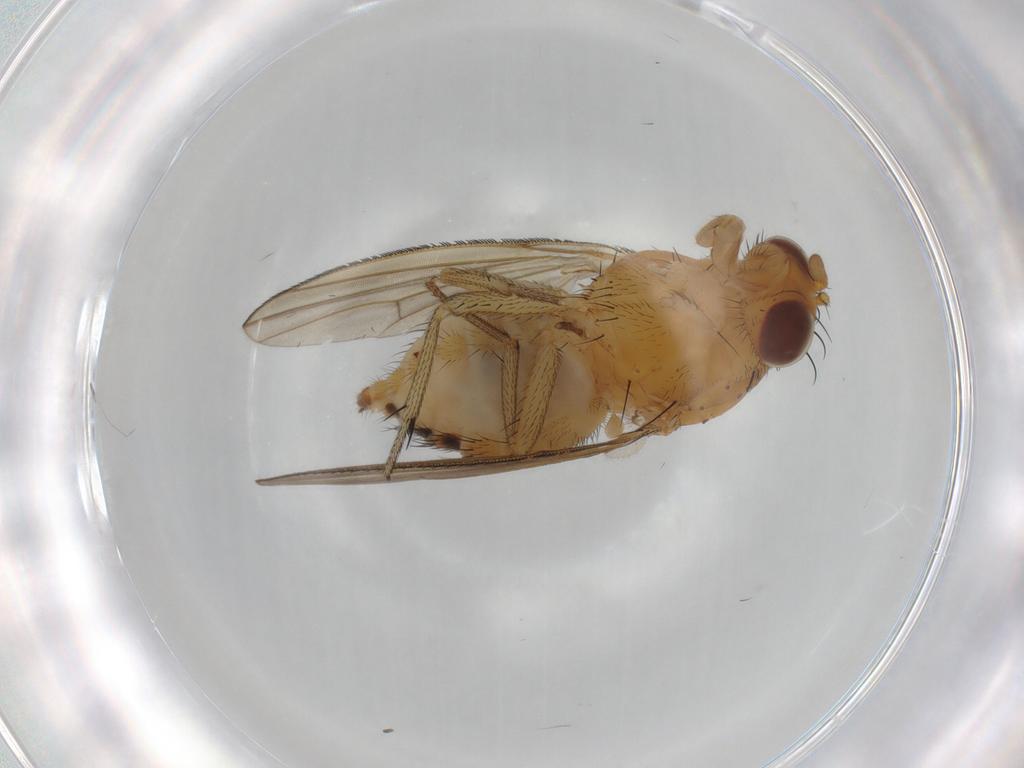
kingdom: Animalia
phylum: Arthropoda
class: Insecta
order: Diptera
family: Lauxaniidae
